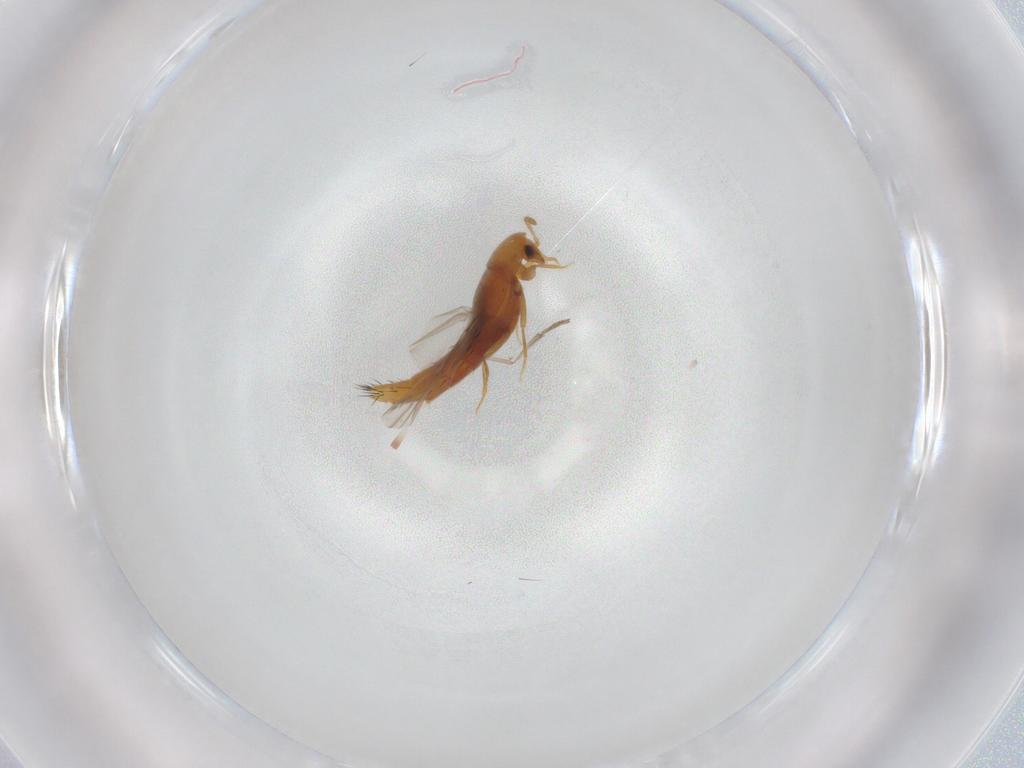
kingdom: Animalia
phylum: Arthropoda
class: Insecta
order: Coleoptera
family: Staphylinidae
